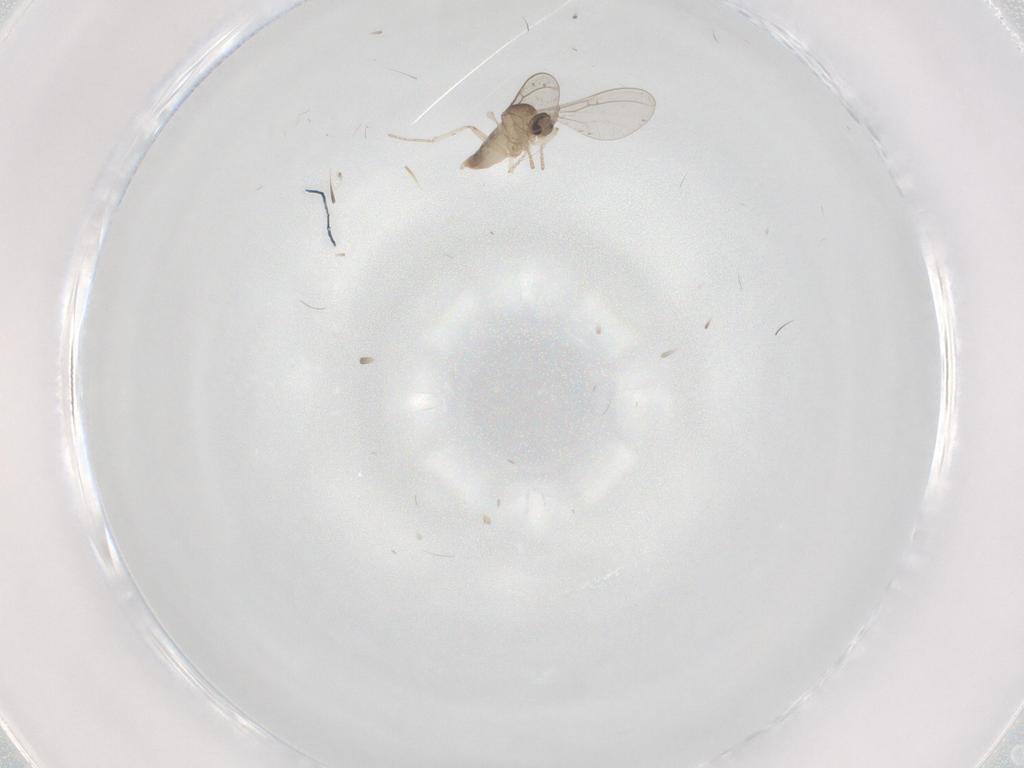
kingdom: Animalia
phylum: Arthropoda
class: Insecta
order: Diptera
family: Cecidomyiidae
